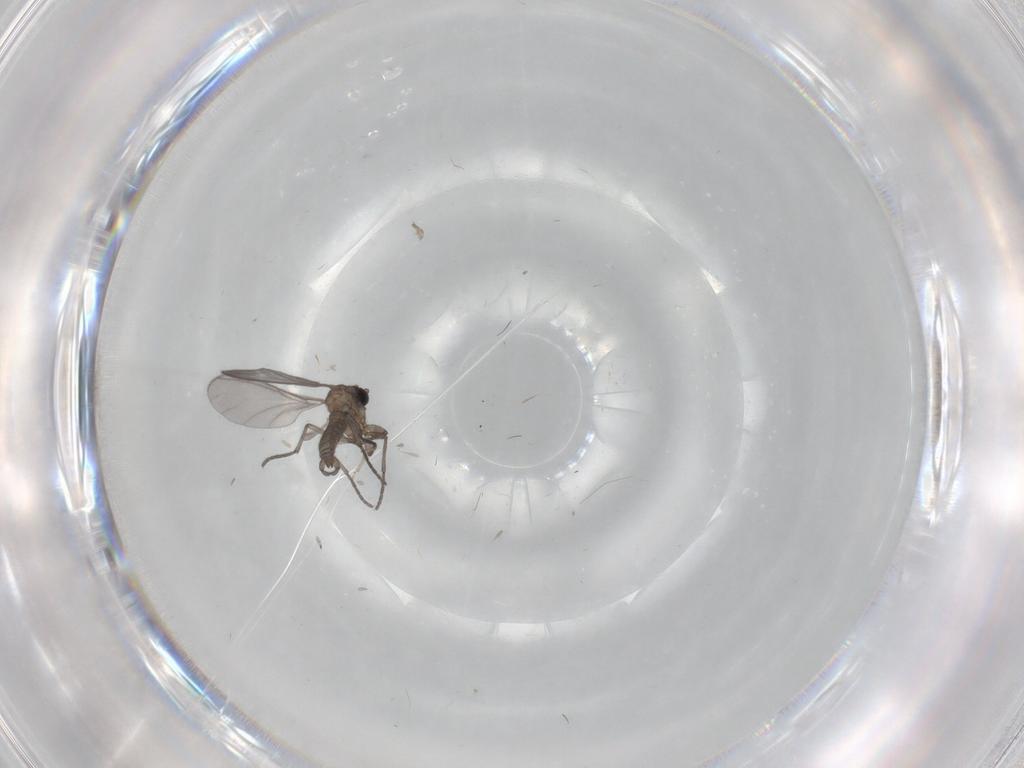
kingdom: Animalia
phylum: Arthropoda
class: Insecta
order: Diptera
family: Sciaridae
